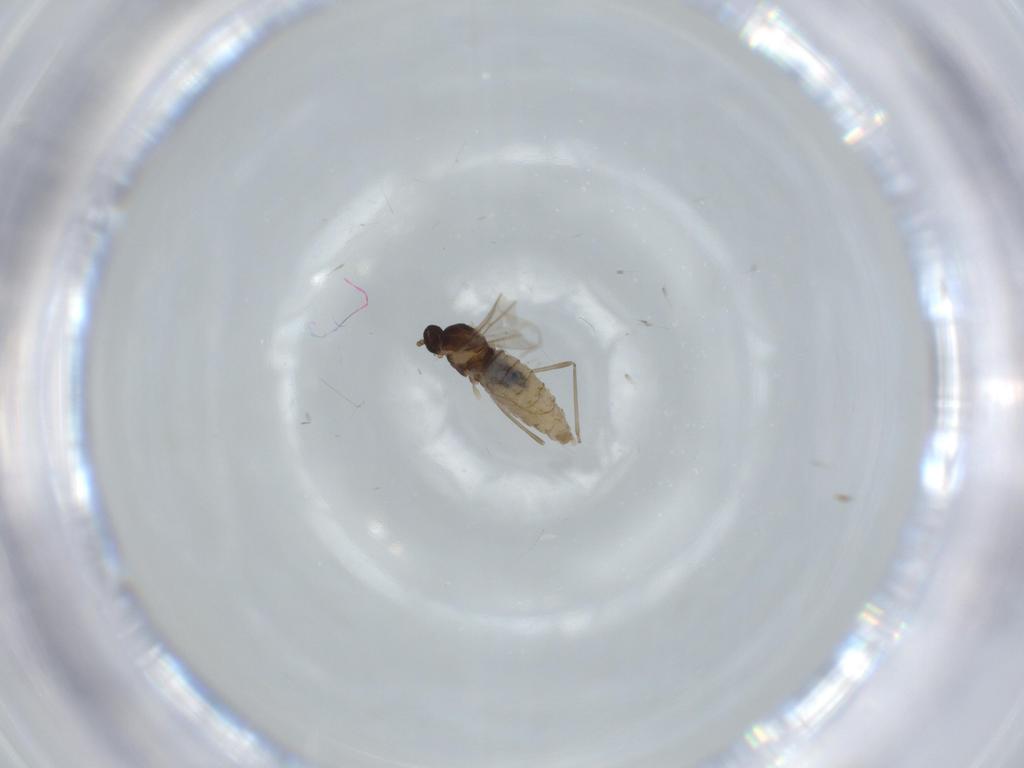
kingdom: Animalia
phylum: Arthropoda
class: Insecta
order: Diptera
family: Cecidomyiidae
